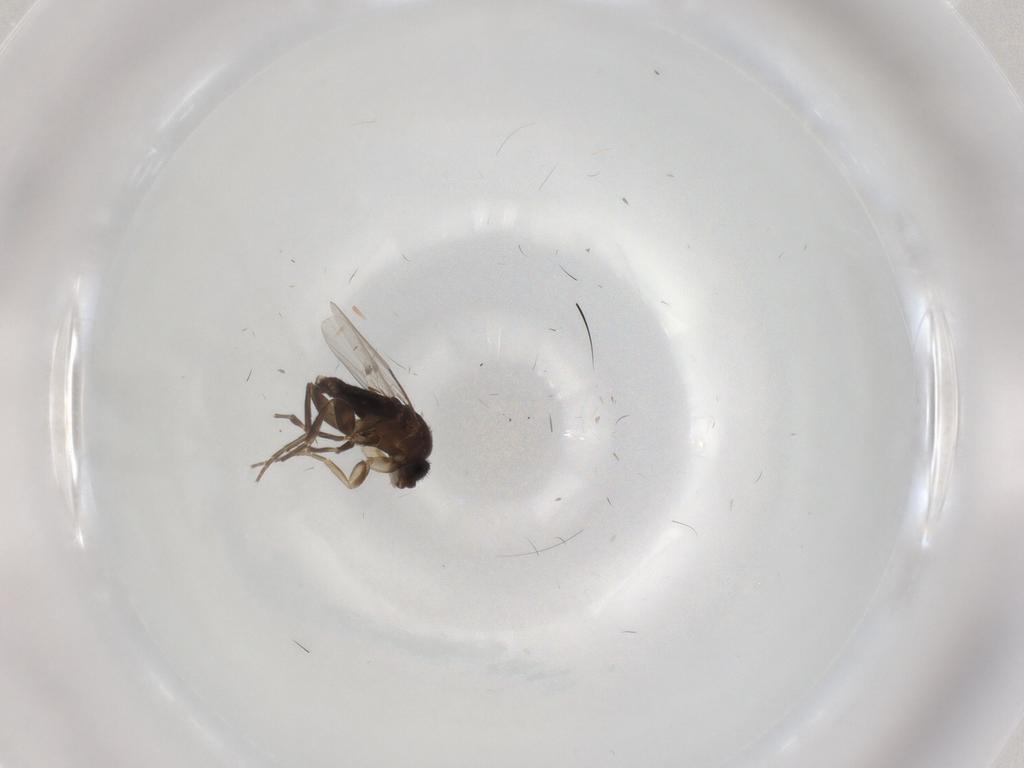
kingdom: Animalia
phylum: Arthropoda
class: Insecta
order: Diptera
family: Phoridae
